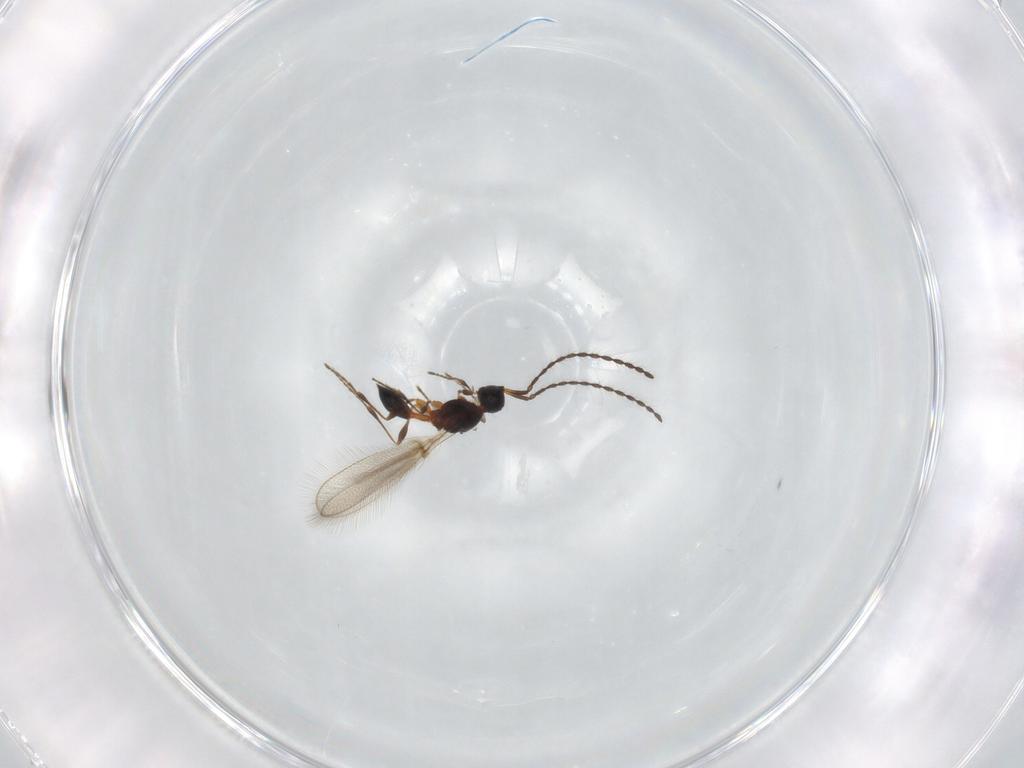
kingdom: Animalia
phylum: Arthropoda
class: Insecta
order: Hymenoptera
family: Diapriidae
